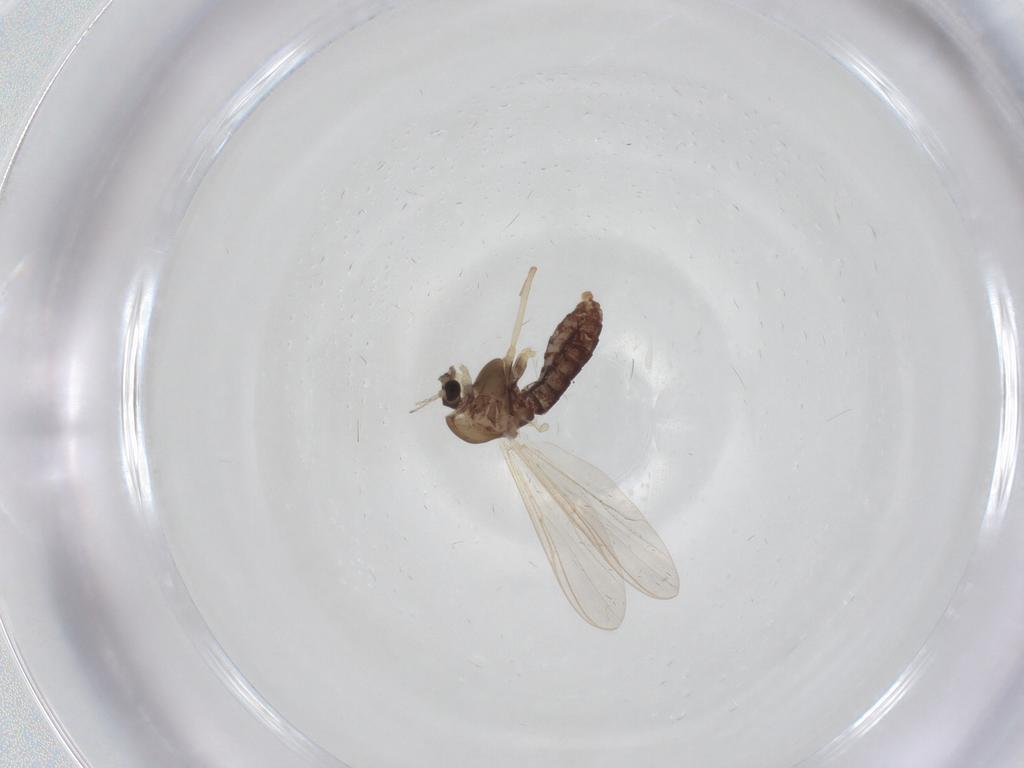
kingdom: Animalia
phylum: Arthropoda
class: Insecta
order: Diptera
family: Chironomidae
